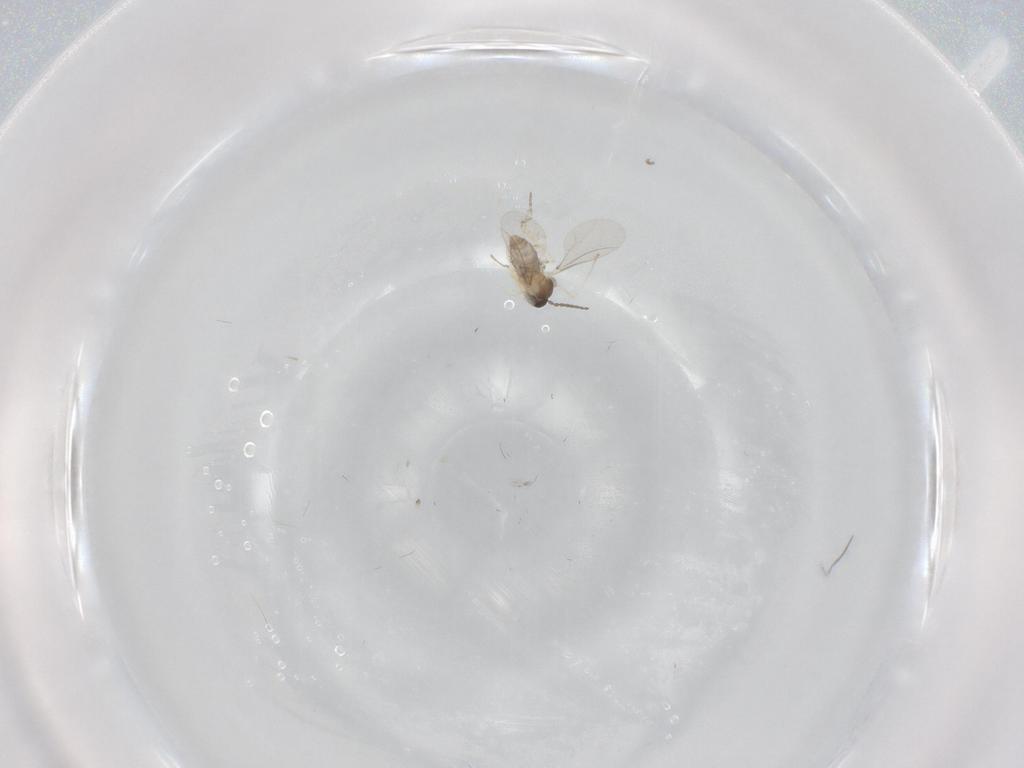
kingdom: Animalia
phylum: Arthropoda
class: Insecta
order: Diptera
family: Cecidomyiidae
